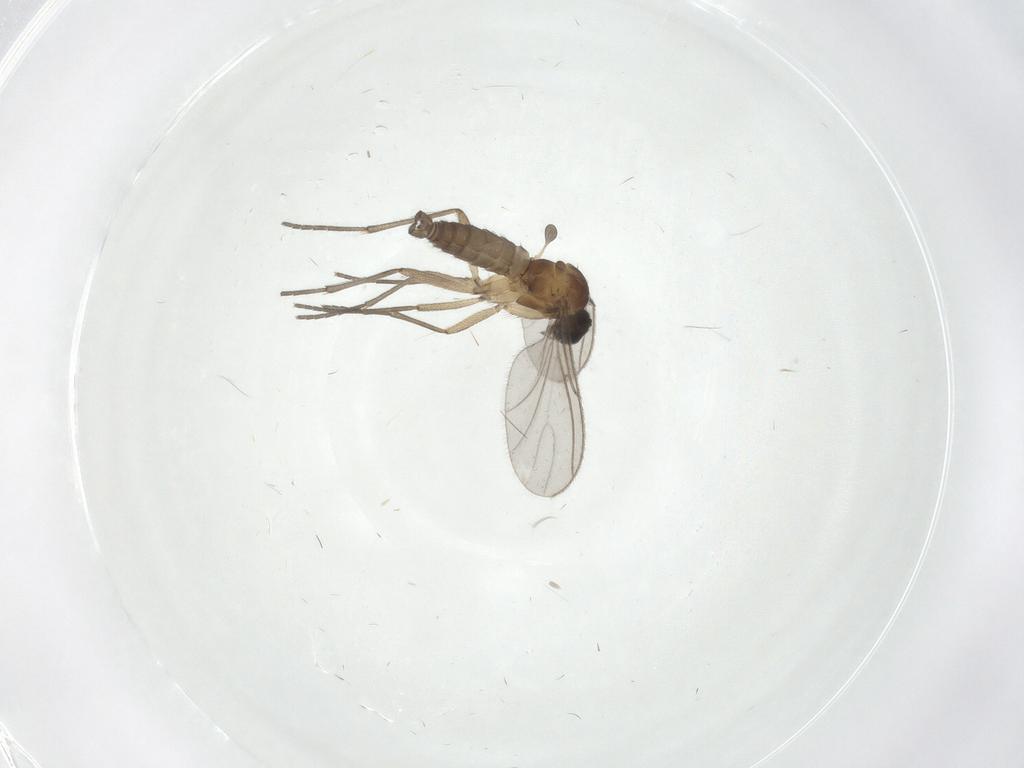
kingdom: Animalia
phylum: Arthropoda
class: Insecta
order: Diptera
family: Sciaridae
